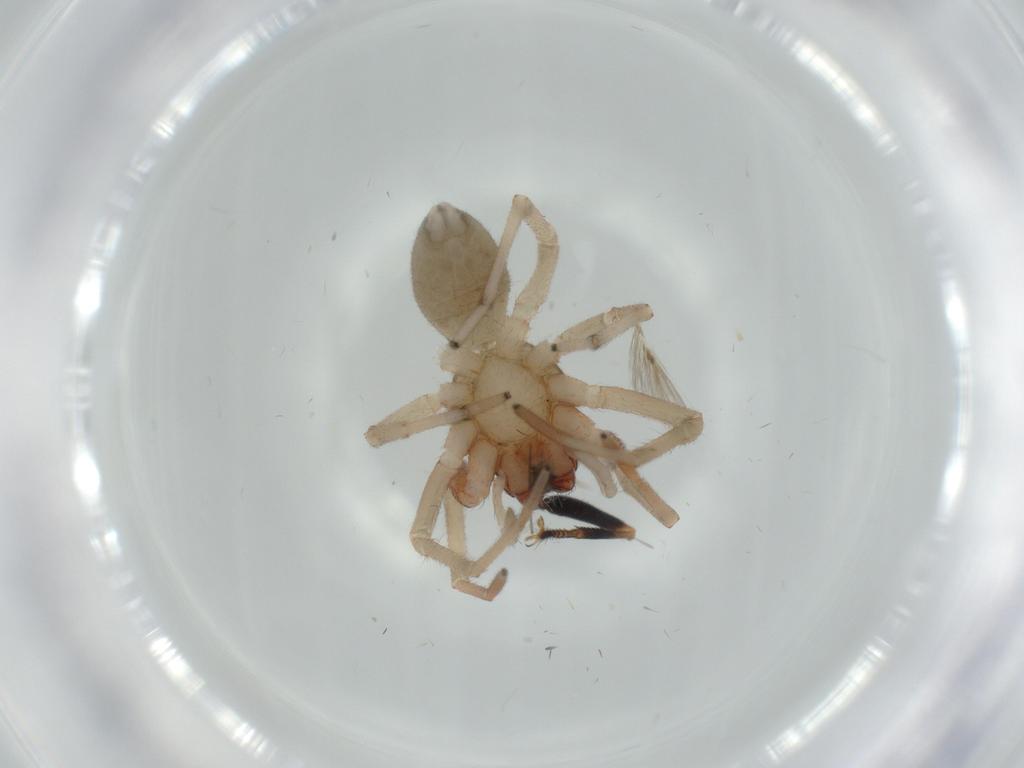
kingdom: Animalia
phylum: Arthropoda
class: Arachnida
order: Araneae
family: Trachelidae
